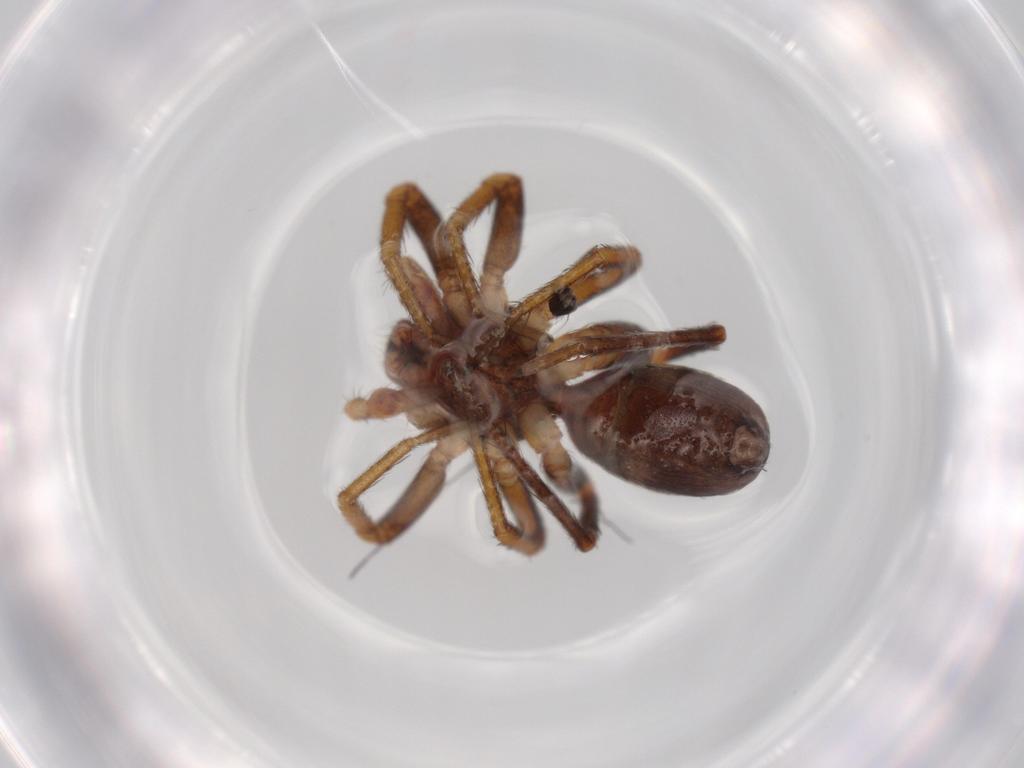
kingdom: Animalia
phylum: Arthropoda
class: Arachnida
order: Araneae
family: Corinnidae
